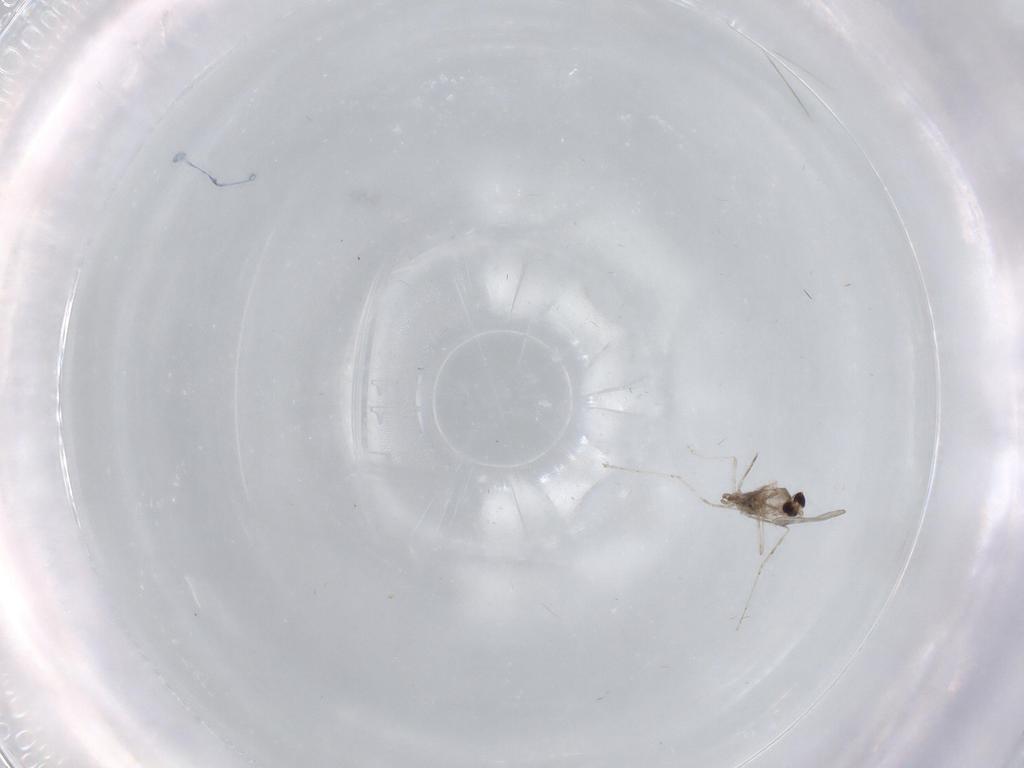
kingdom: Animalia
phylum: Arthropoda
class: Insecta
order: Diptera
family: Cecidomyiidae
